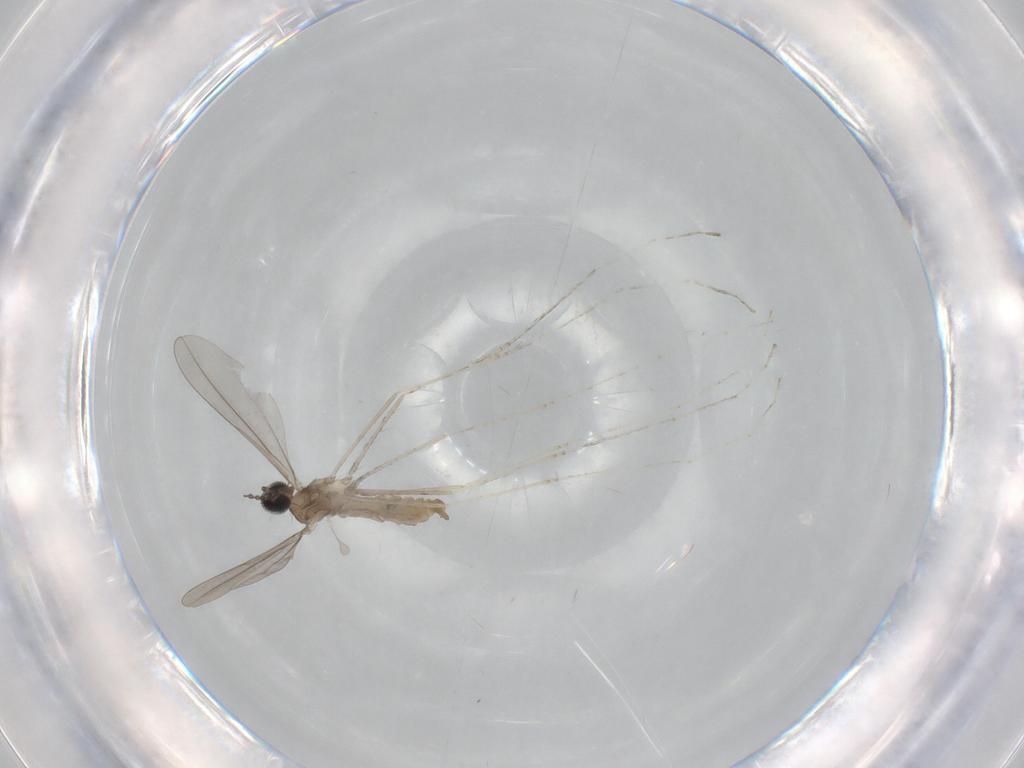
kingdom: Animalia
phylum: Arthropoda
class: Insecta
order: Diptera
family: Cecidomyiidae
